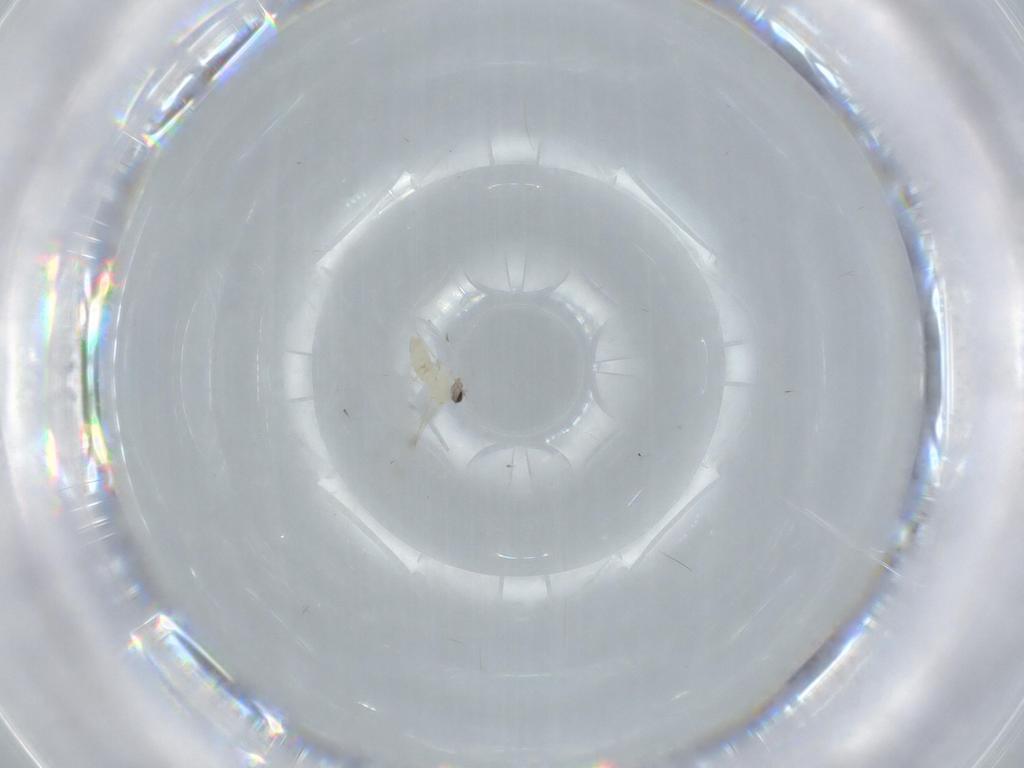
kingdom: Animalia
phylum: Arthropoda
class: Insecta
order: Diptera
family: Cecidomyiidae
